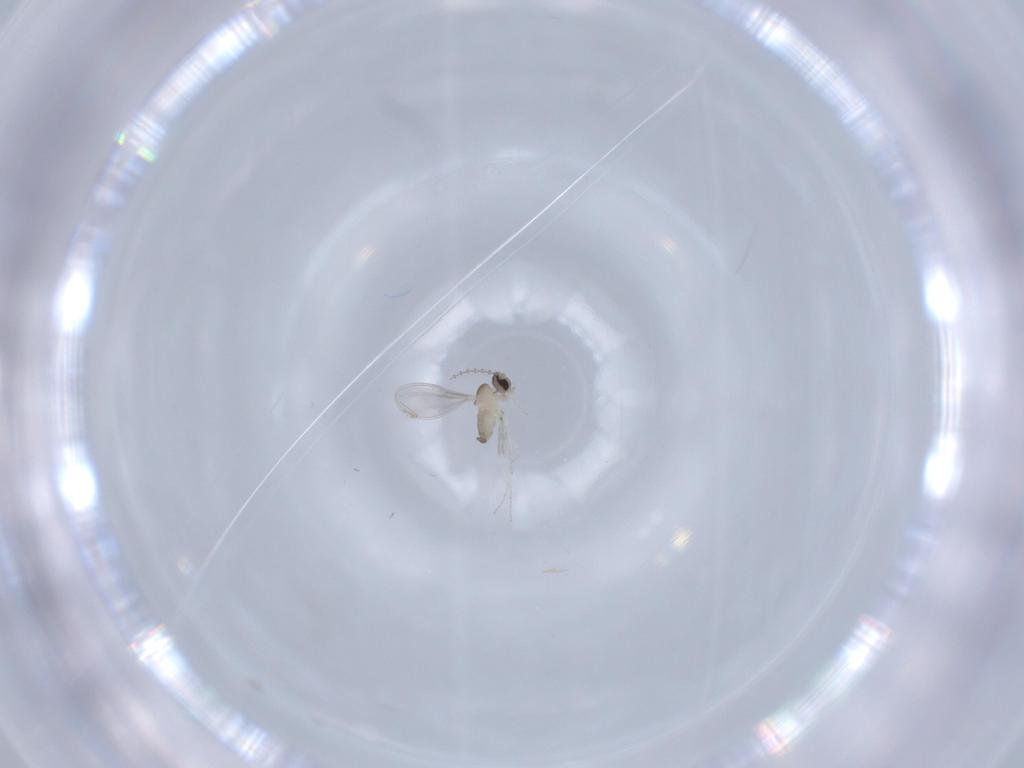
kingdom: Animalia
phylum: Arthropoda
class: Insecta
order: Diptera
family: Cecidomyiidae
